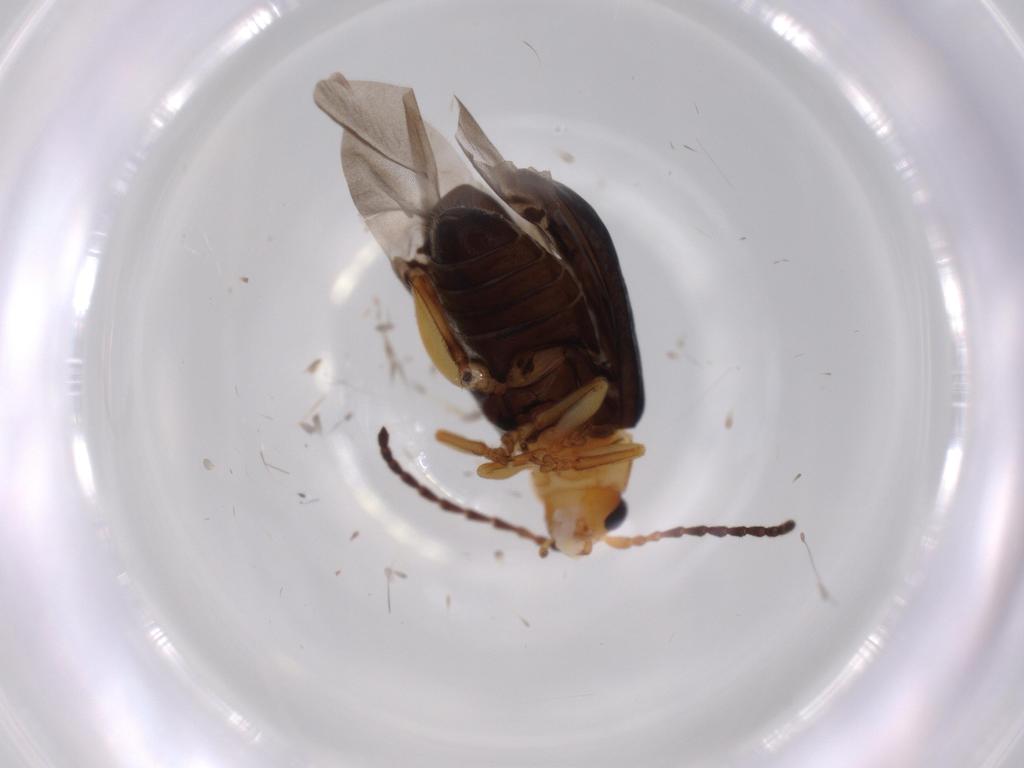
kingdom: Animalia
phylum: Arthropoda
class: Insecta
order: Coleoptera
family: Chrysomelidae
